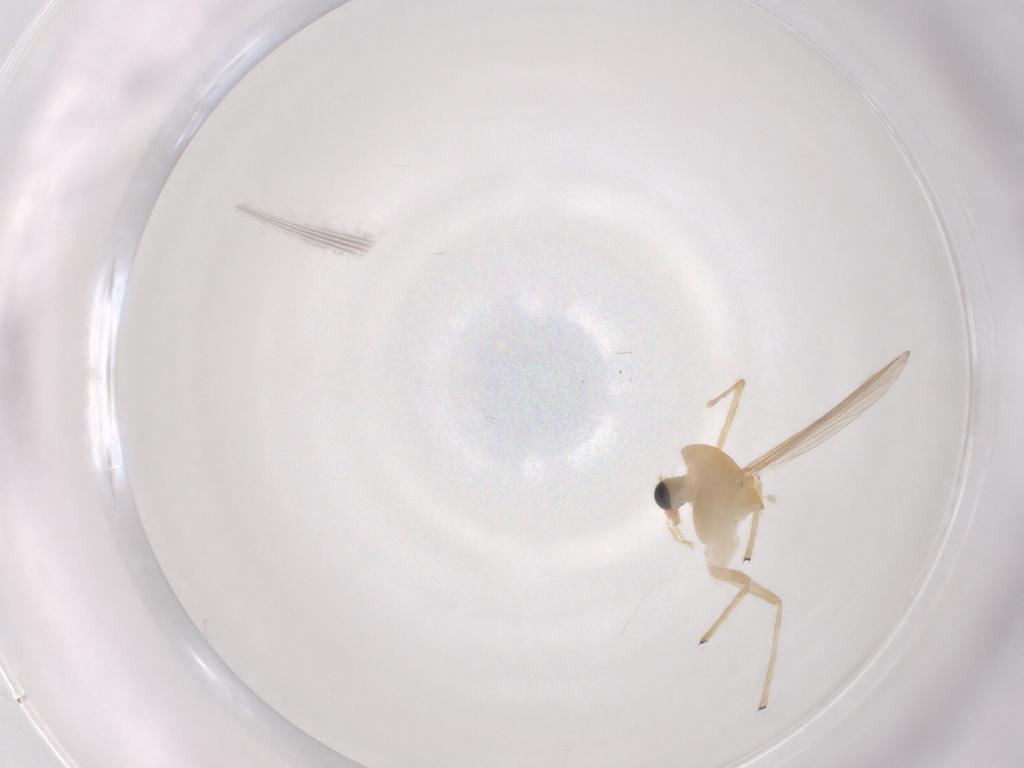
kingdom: Animalia
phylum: Arthropoda
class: Insecta
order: Diptera
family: Chironomidae
